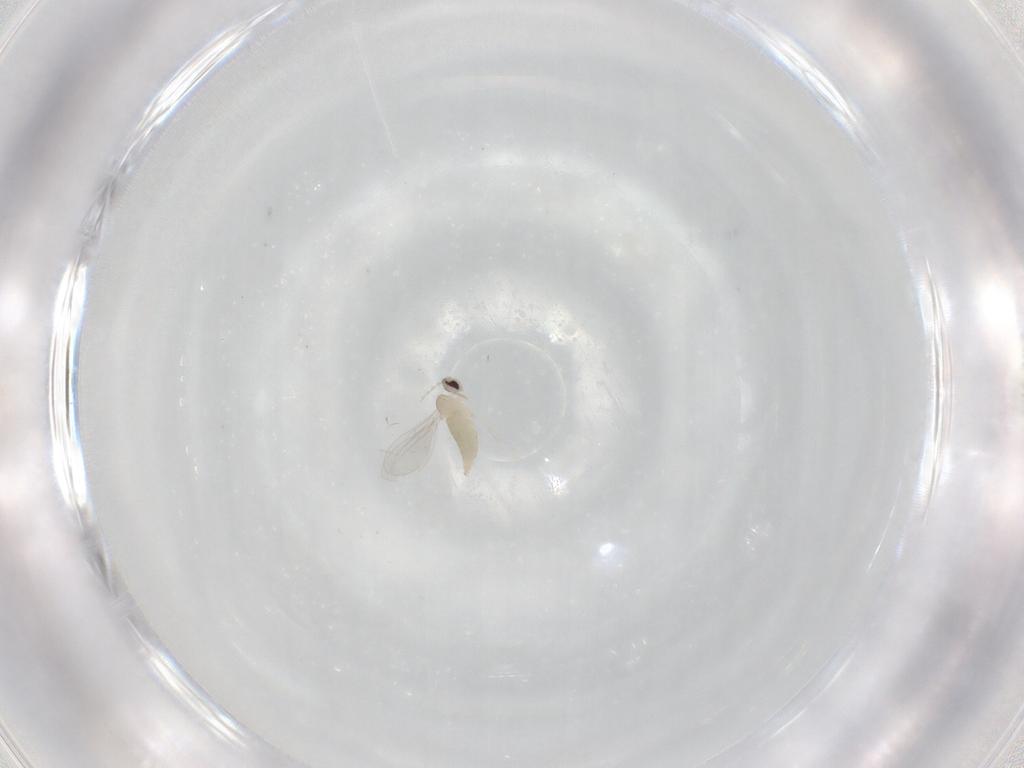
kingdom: Animalia
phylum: Arthropoda
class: Insecta
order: Diptera
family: Cecidomyiidae
